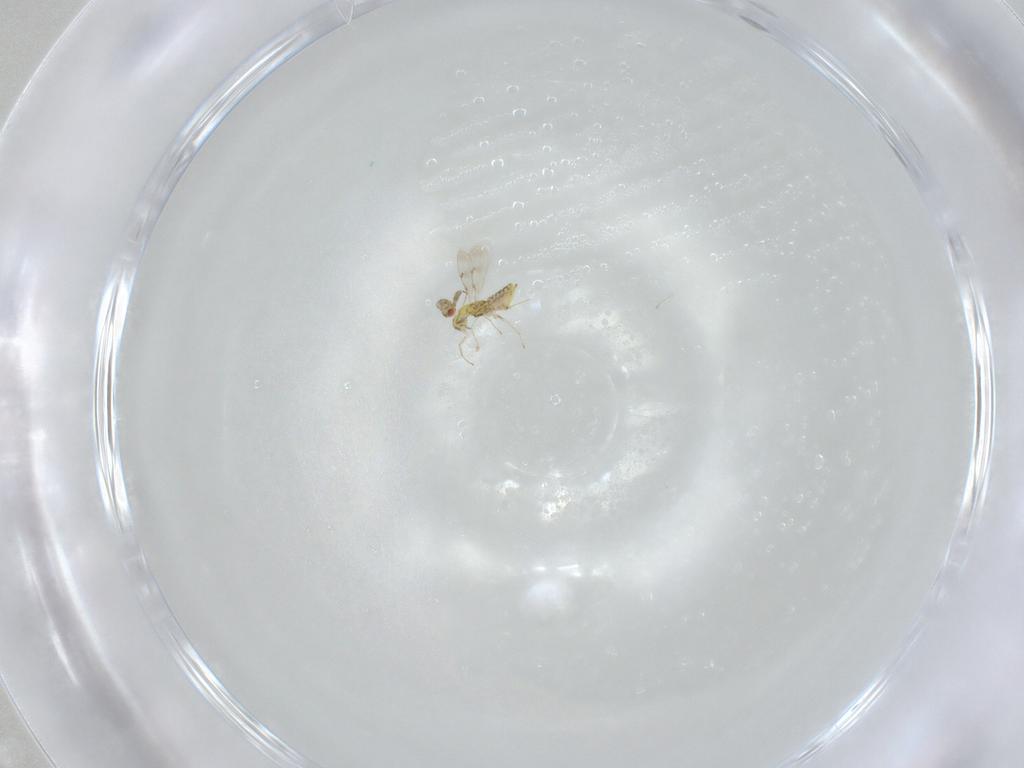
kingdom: Animalia
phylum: Arthropoda
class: Insecta
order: Hymenoptera
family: Eulophidae
